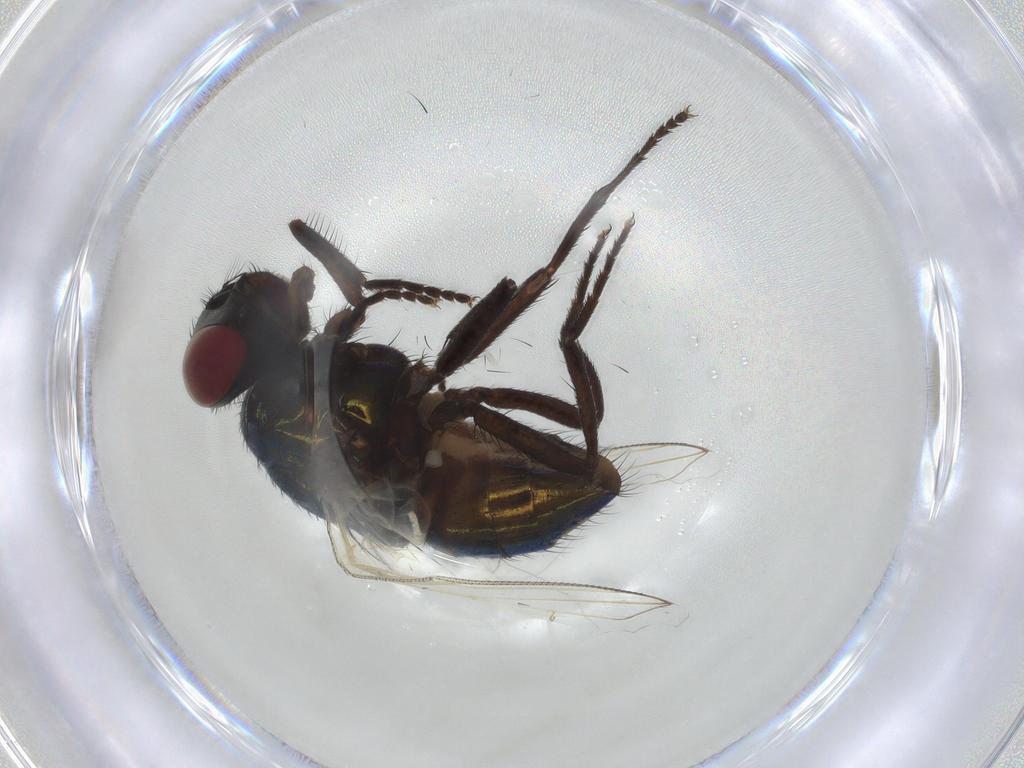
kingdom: Animalia
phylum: Arthropoda
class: Insecta
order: Diptera
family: Muscidae
